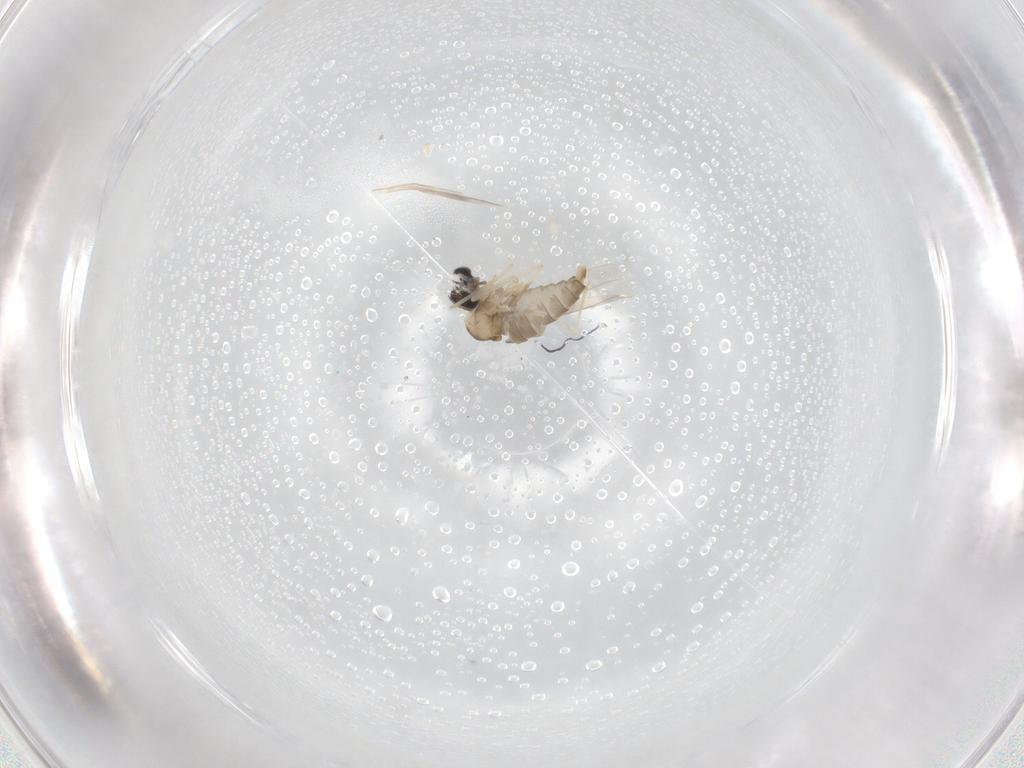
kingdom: Animalia
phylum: Arthropoda
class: Insecta
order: Diptera
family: Cecidomyiidae
